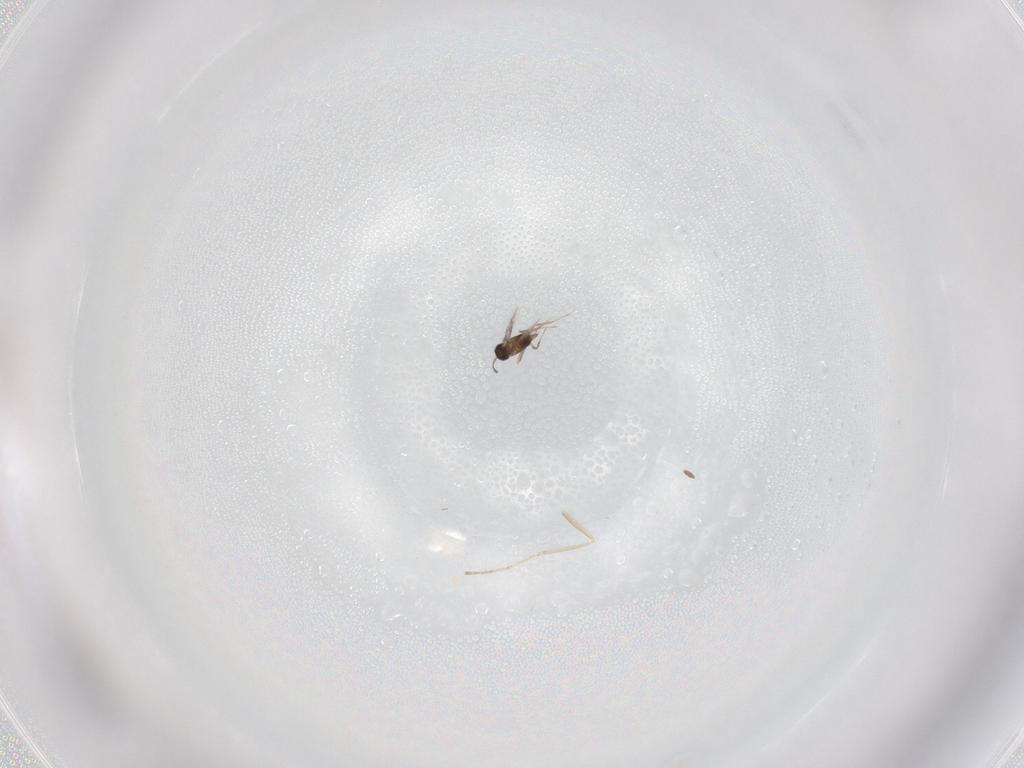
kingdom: Animalia
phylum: Arthropoda
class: Insecta
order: Hymenoptera
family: Mymaridae
